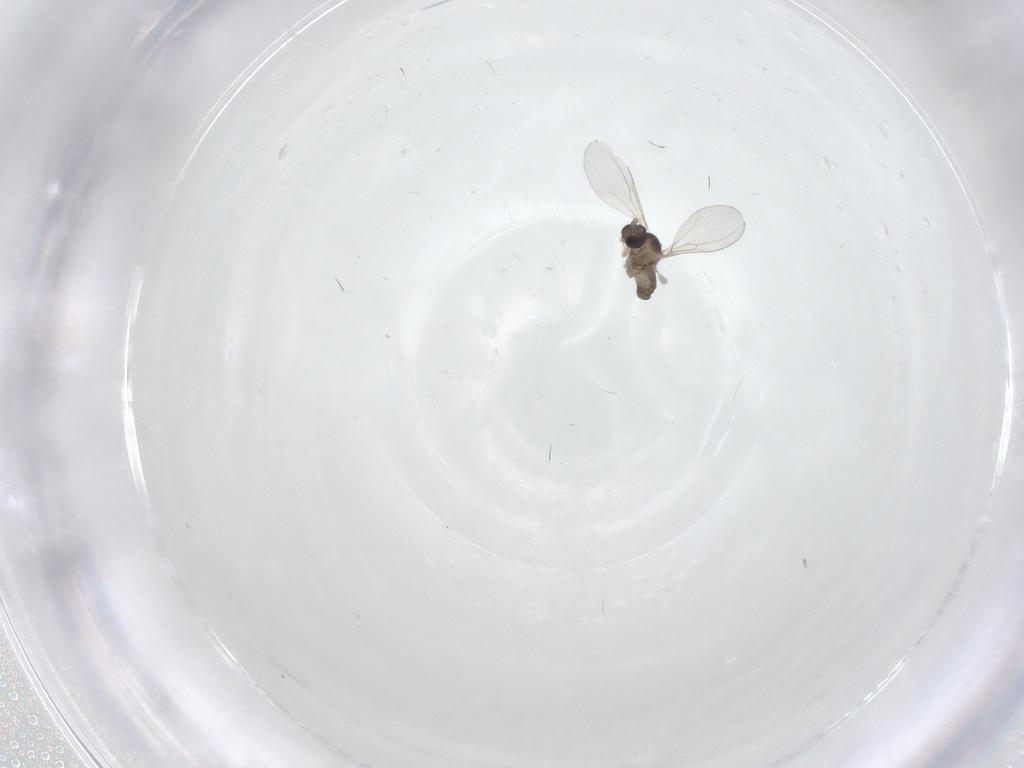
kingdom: Animalia
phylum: Arthropoda
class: Insecta
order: Diptera
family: Cecidomyiidae
